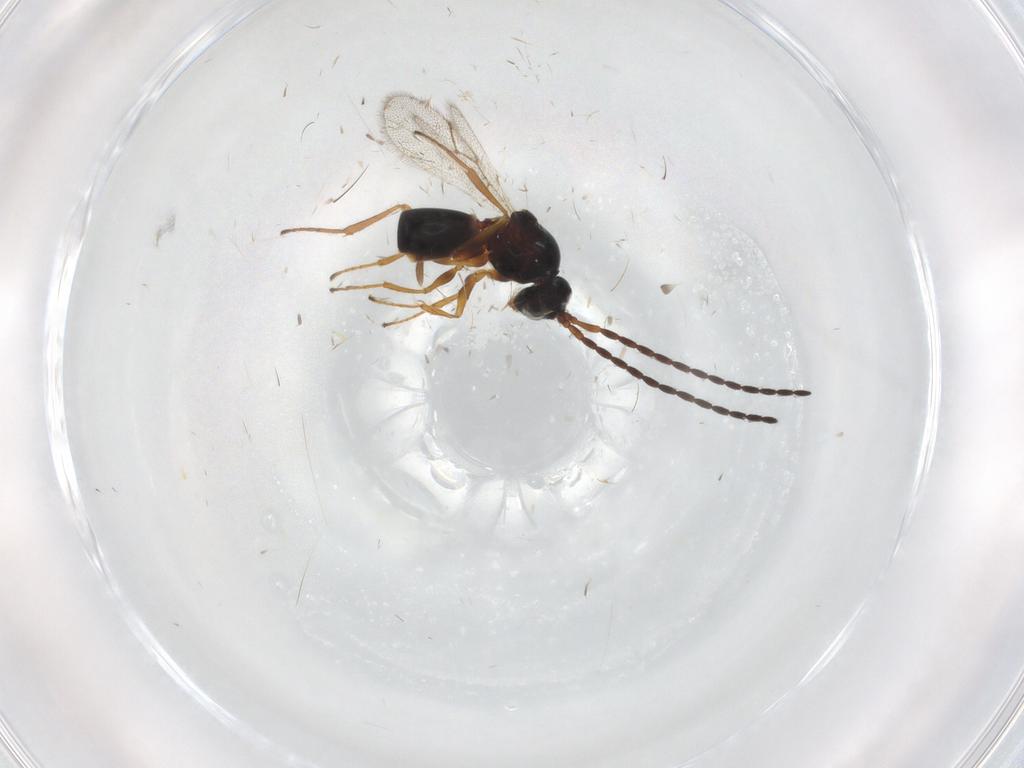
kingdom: Animalia
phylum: Arthropoda
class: Insecta
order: Hymenoptera
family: Figitidae
